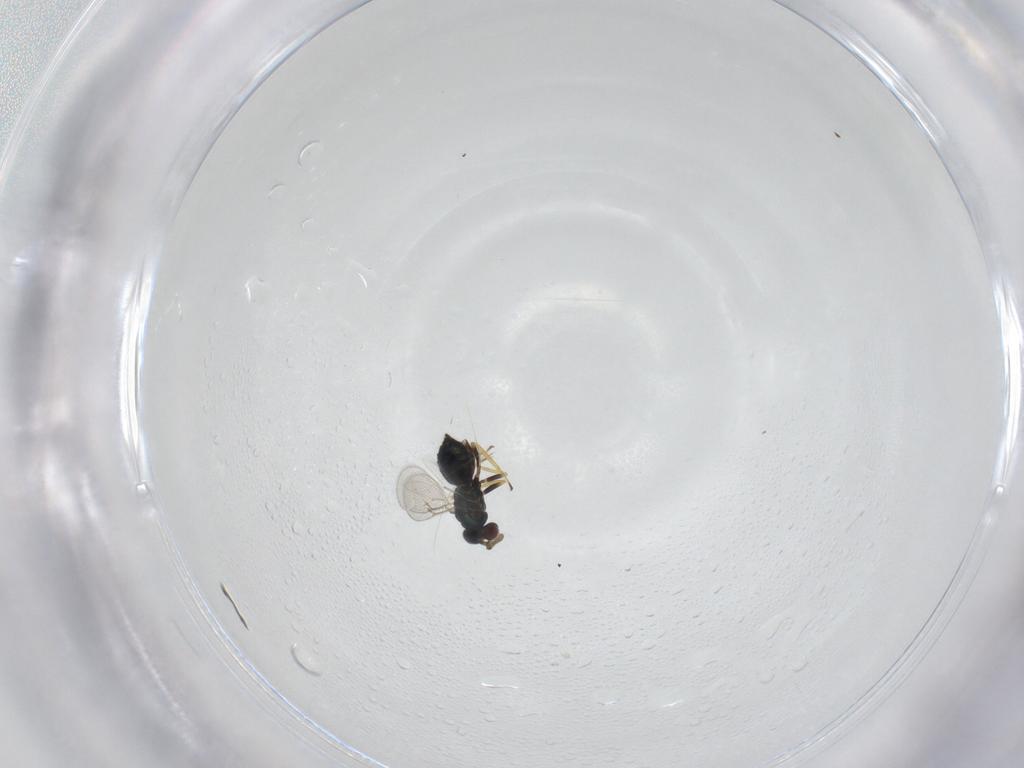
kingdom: Animalia
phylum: Arthropoda
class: Insecta
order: Hymenoptera
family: Eulophidae
